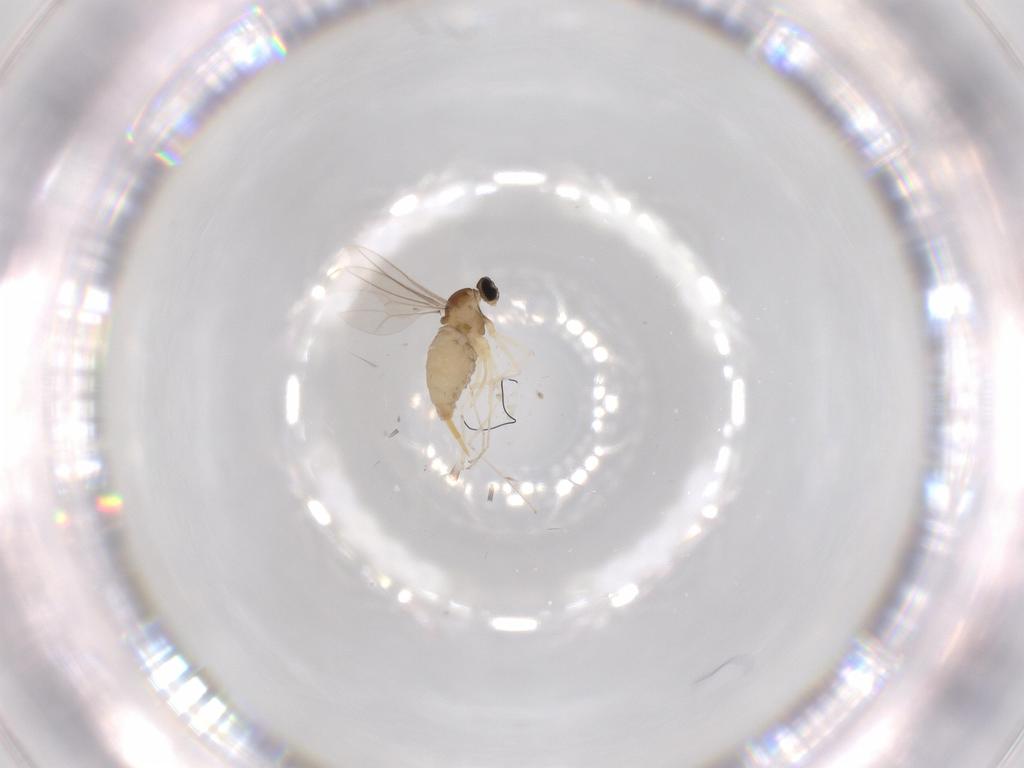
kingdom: Animalia
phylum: Arthropoda
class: Insecta
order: Diptera
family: Cecidomyiidae
